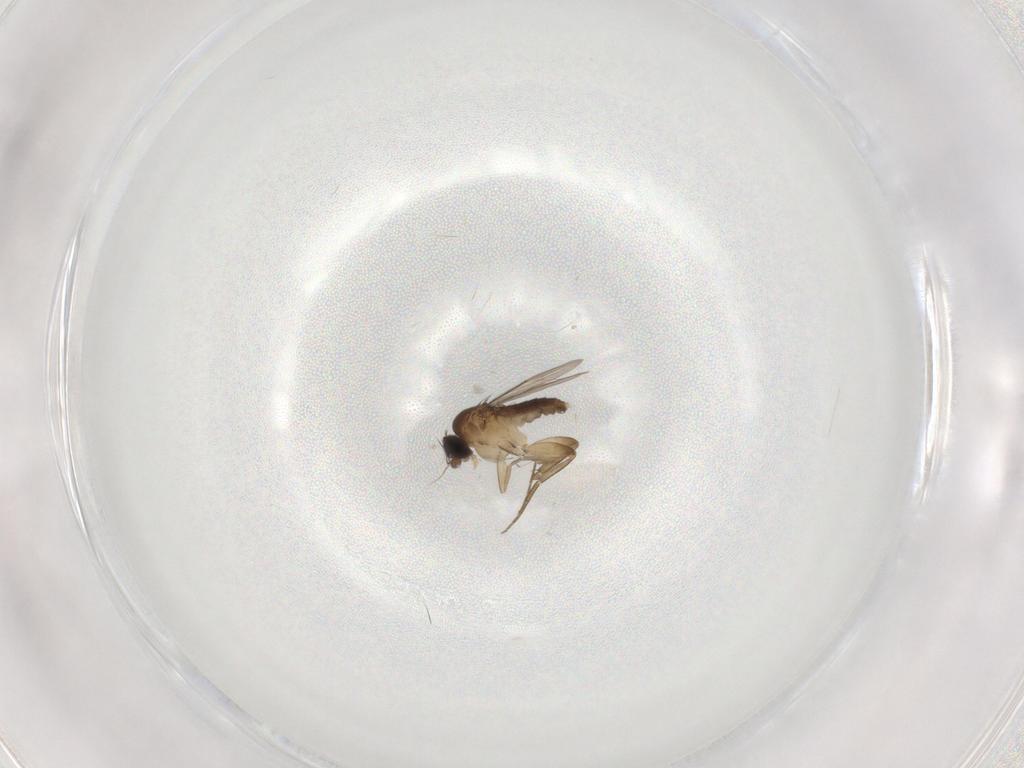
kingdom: Animalia
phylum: Arthropoda
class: Insecta
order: Diptera
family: Phoridae
